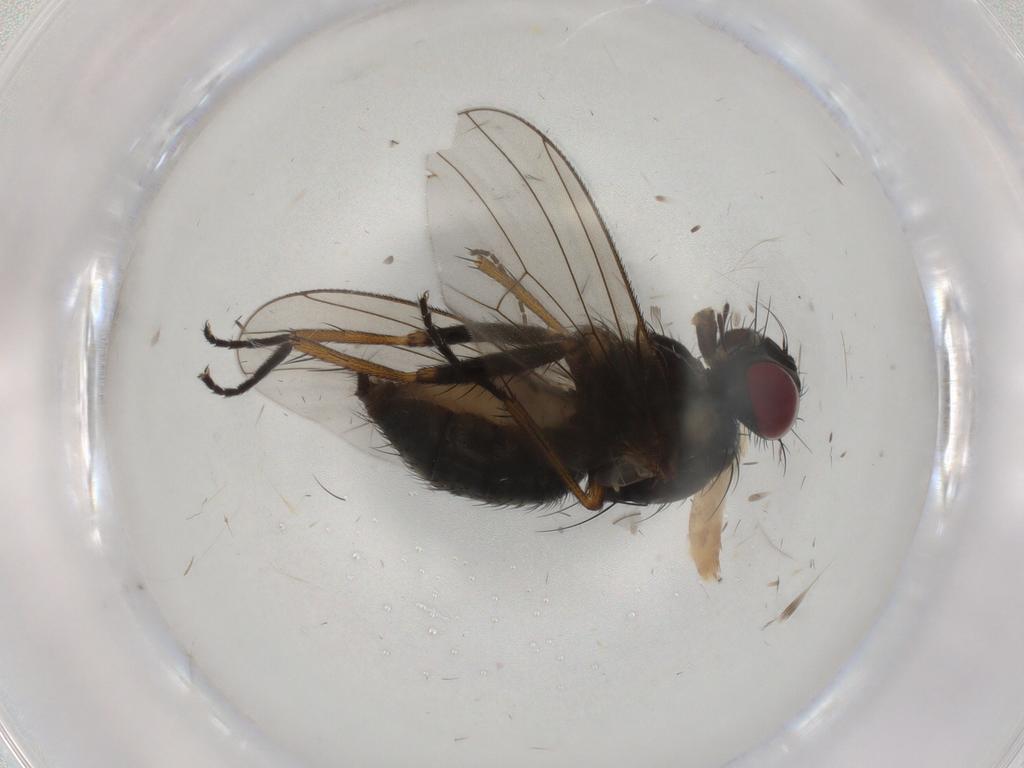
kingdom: Animalia
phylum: Arthropoda
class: Insecta
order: Diptera
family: Muscidae
